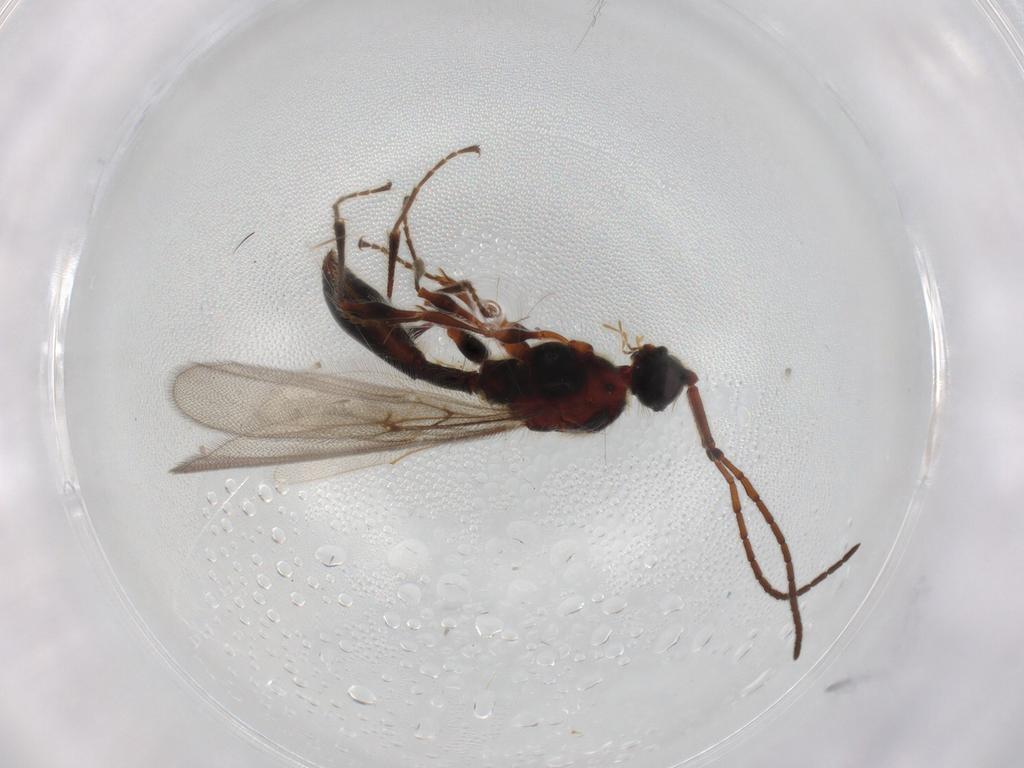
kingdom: Animalia
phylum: Arthropoda
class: Insecta
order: Hymenoptera
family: Diapriidae
